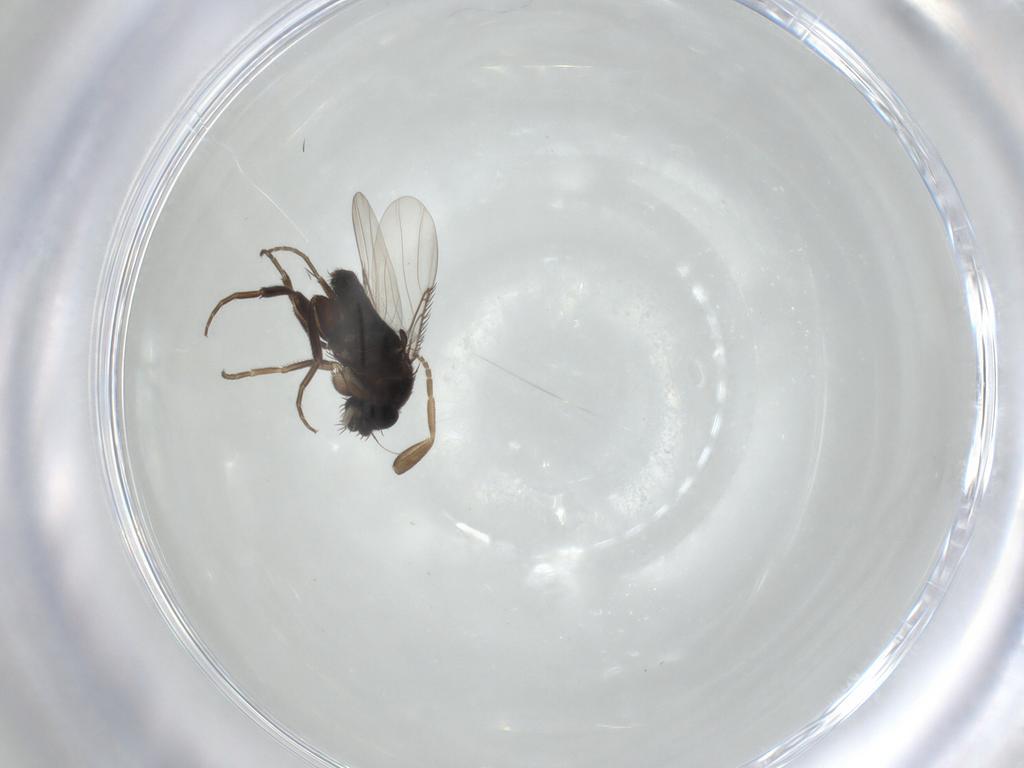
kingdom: Animalia
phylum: Arthropoda
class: Insecta
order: Diptera
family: Phoridae
